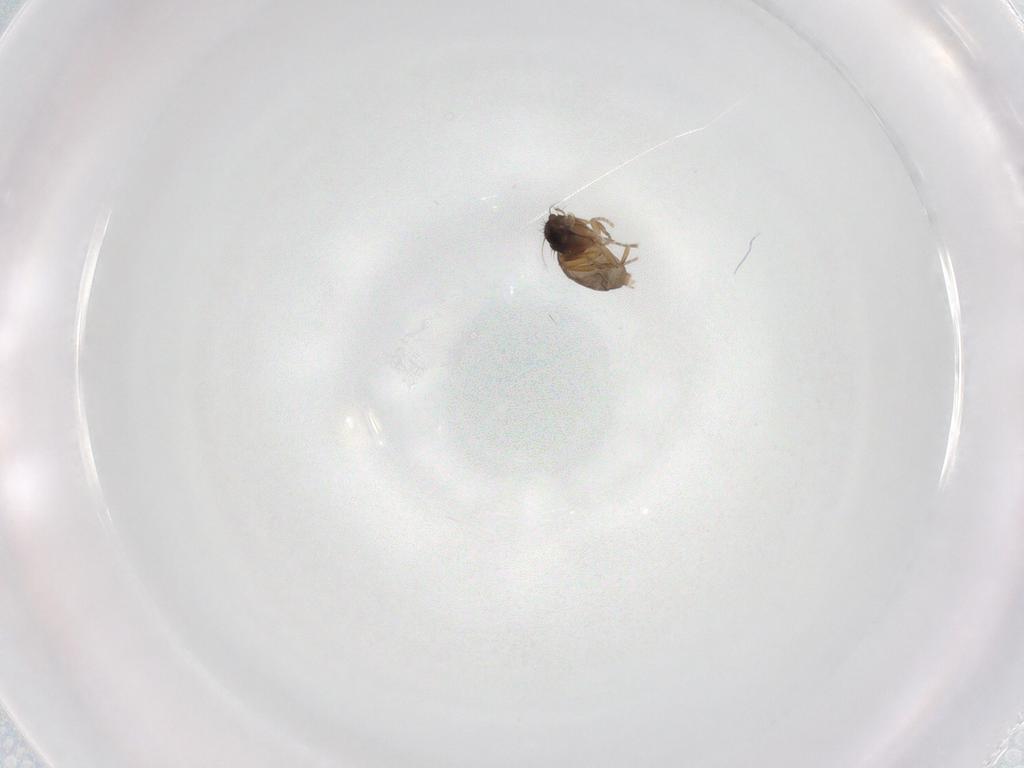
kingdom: Animalia
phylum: Arthropoda
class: Insecta
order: Diptera
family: Phoridae
